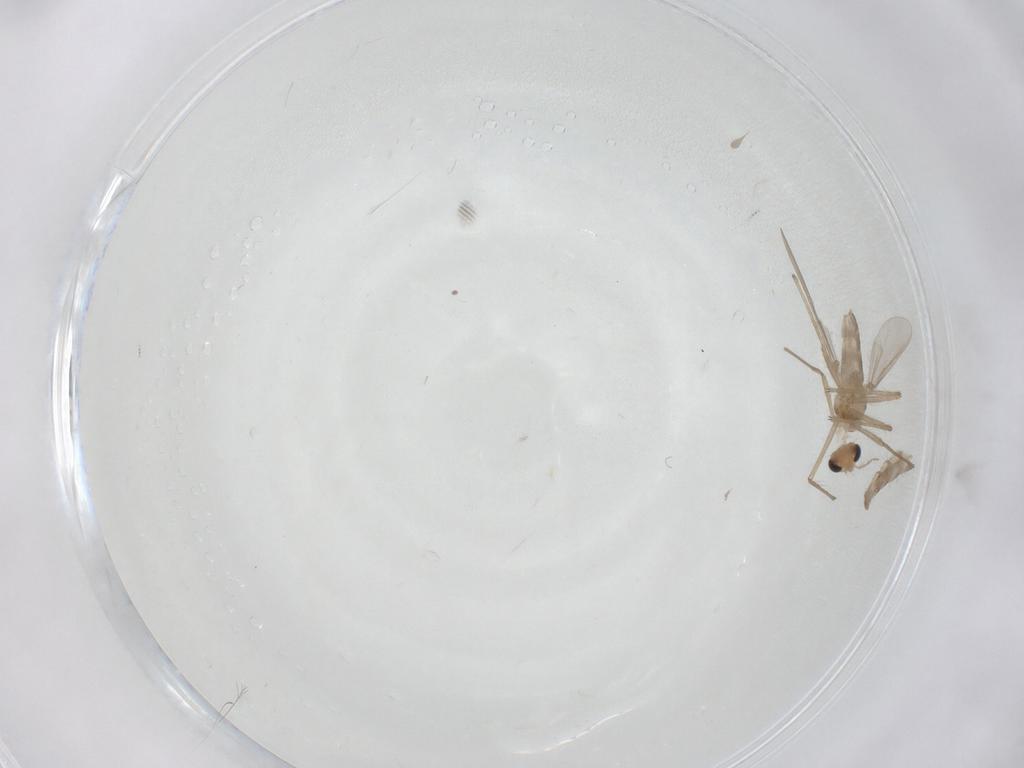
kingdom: Animalia
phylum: Arthropoda
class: Insecta
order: Diptera
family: Chironomidae
